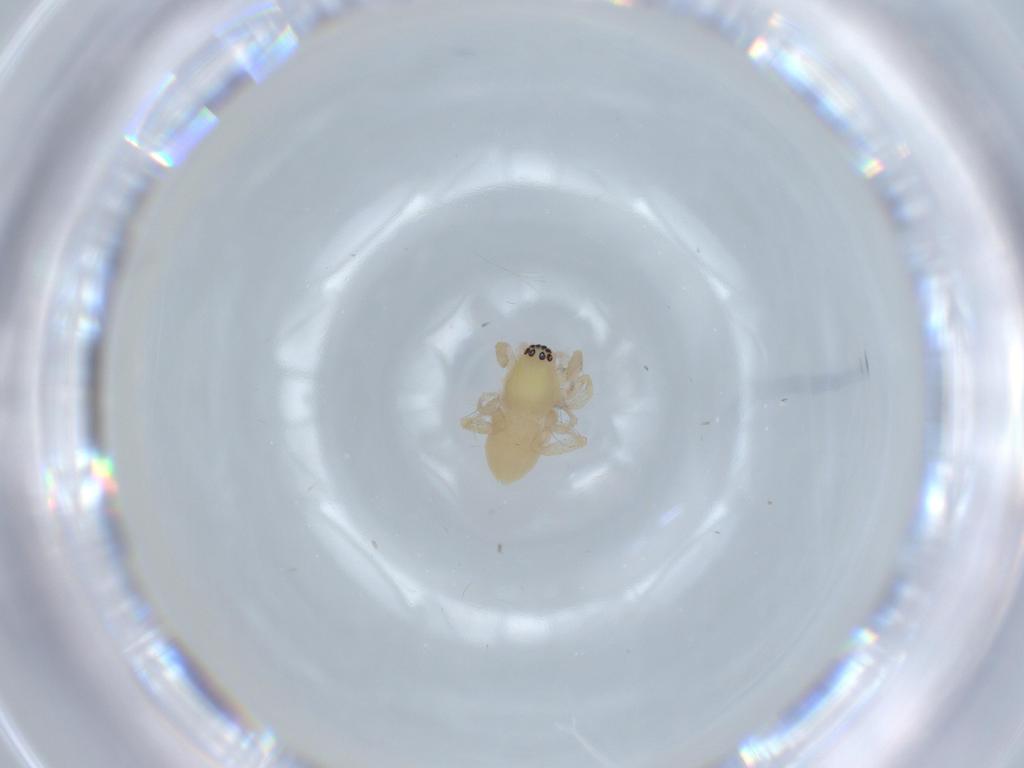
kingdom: Animalia
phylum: Arthropoda
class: Arachnida
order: Araneae
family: Anyphaenidae
